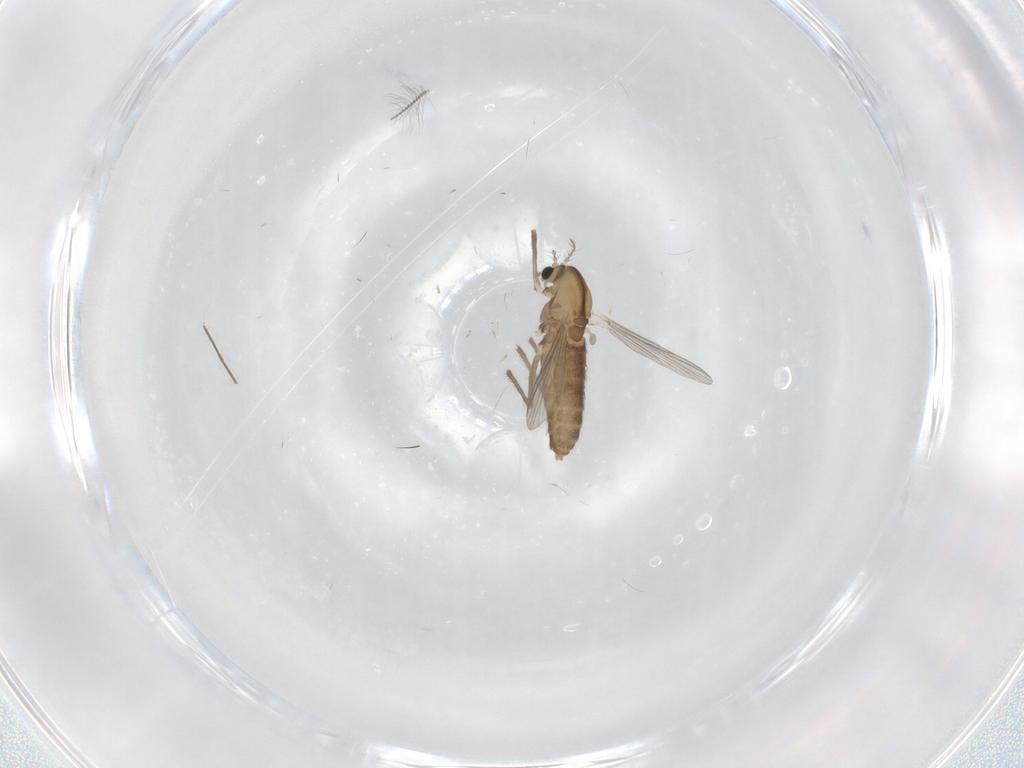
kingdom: Animalia
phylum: Arthropoda
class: Insecta
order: Diptera
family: Chironomidae
